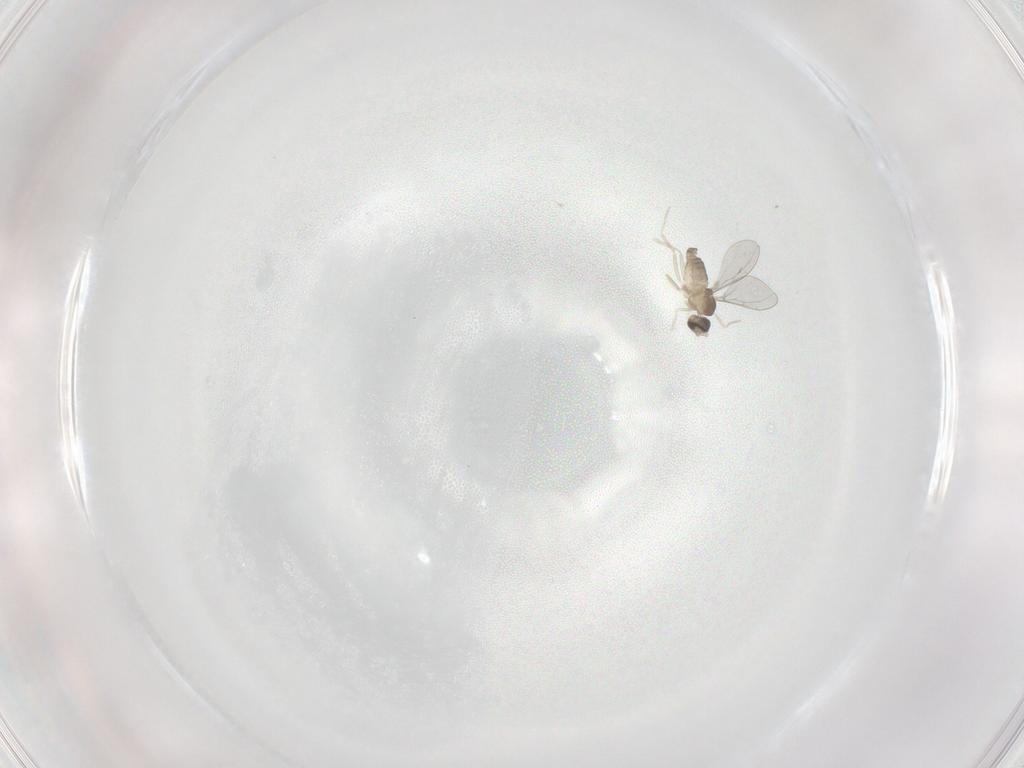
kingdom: Animalia
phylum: Arthropoda
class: Insecta
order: Diptera
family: Cecidomyiidae
